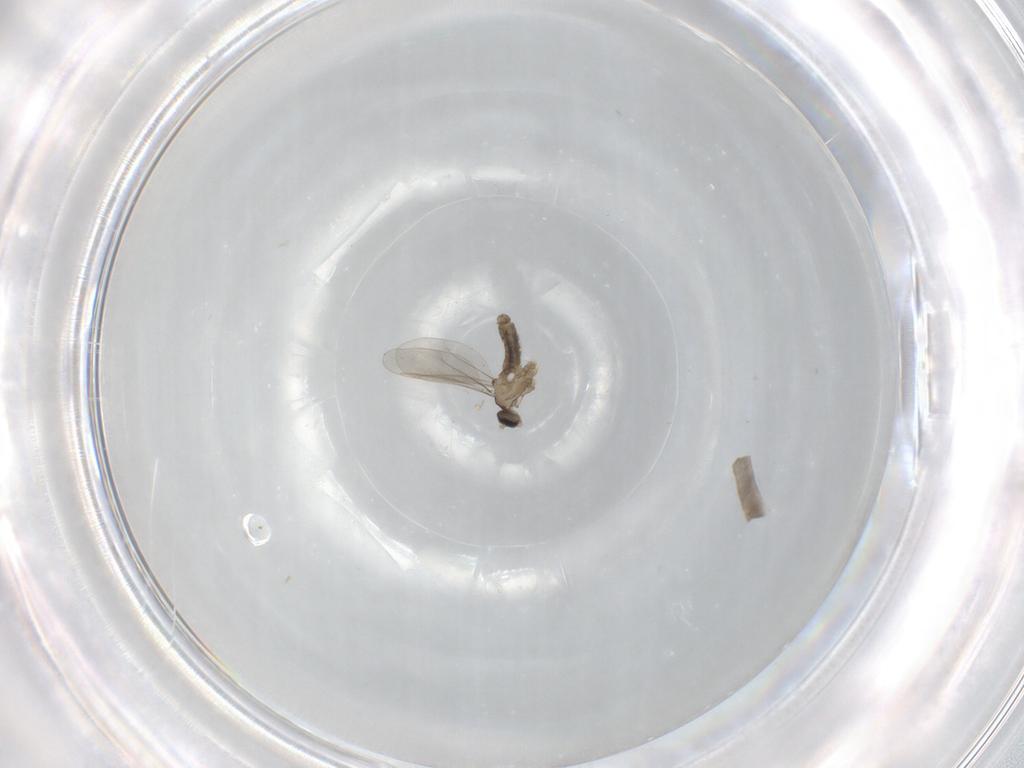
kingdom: Animalia
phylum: Arthropoda
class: Insecta
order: Diptera
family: Cecidomyiidae
